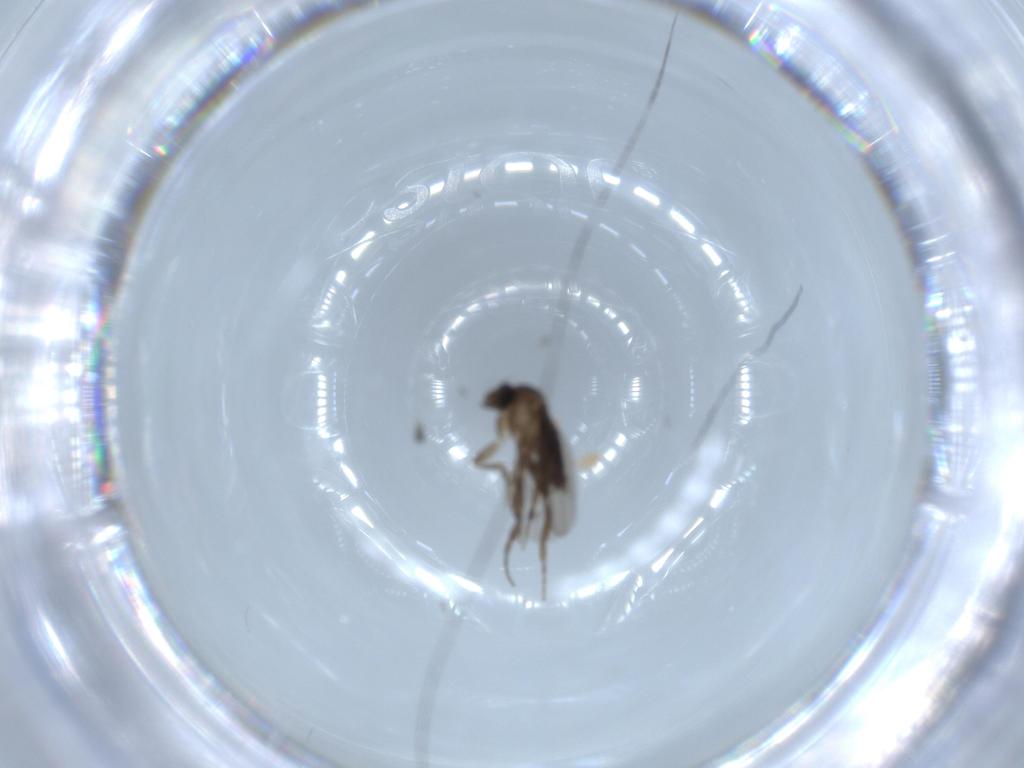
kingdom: Animalia
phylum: Arthropoda
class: Insecta
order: Diptera
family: Phoridae
